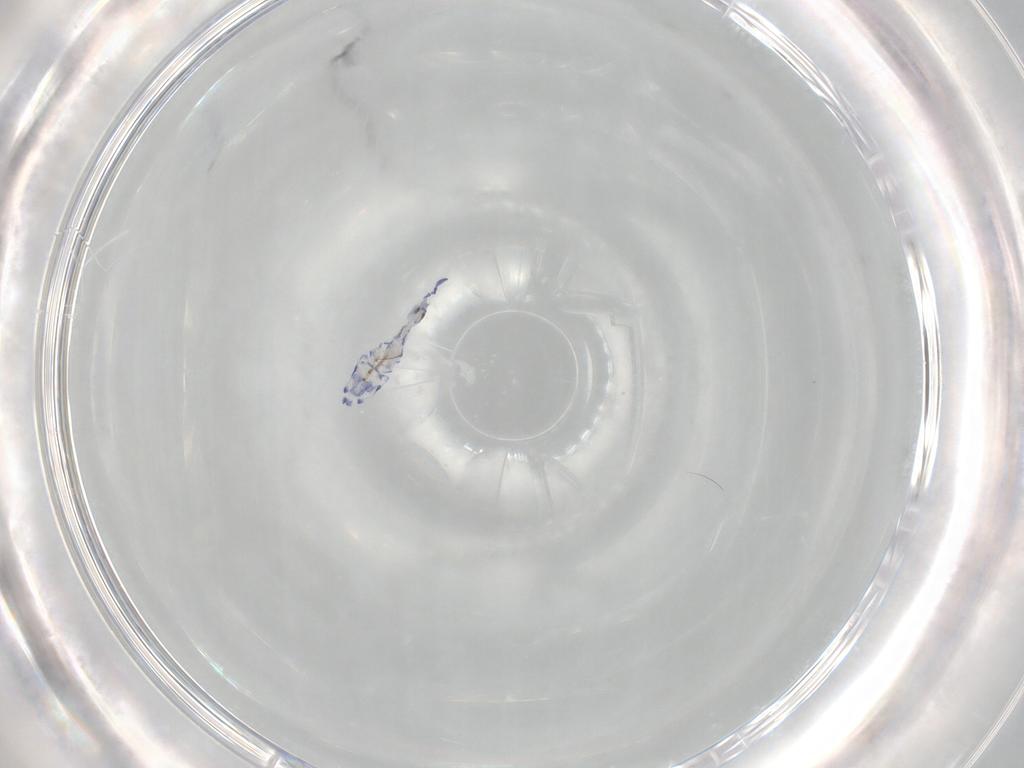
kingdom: Animalia
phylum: Arthropoda
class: Collembola
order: Entomobryomorpha
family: Entomobryidae
